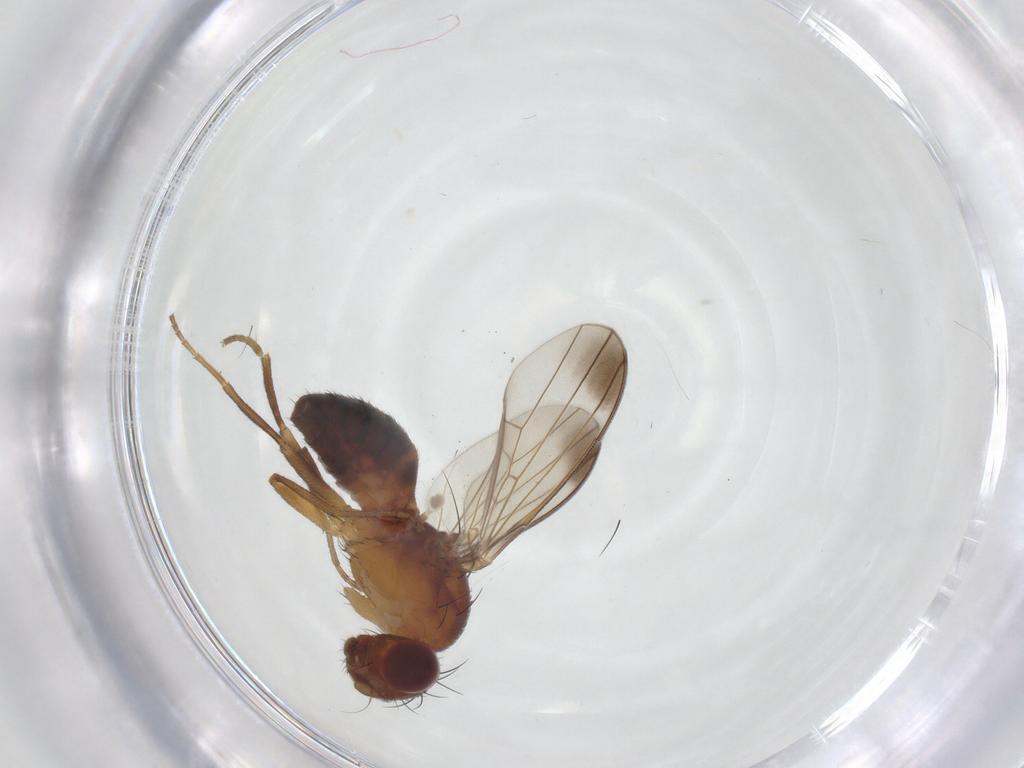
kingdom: Animalia
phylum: Arthropoda
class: Insecta
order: Diptera
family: Piophilidae
